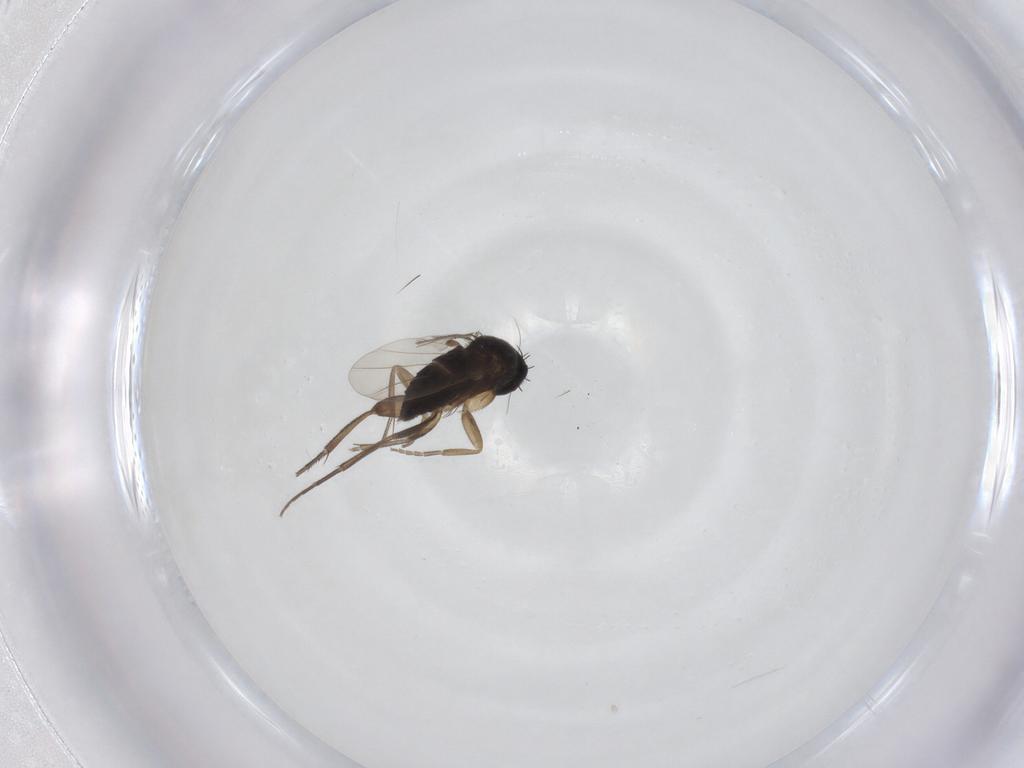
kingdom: Animalia
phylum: Arthropoda
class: Insecta
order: Diptera
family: Phoridae
